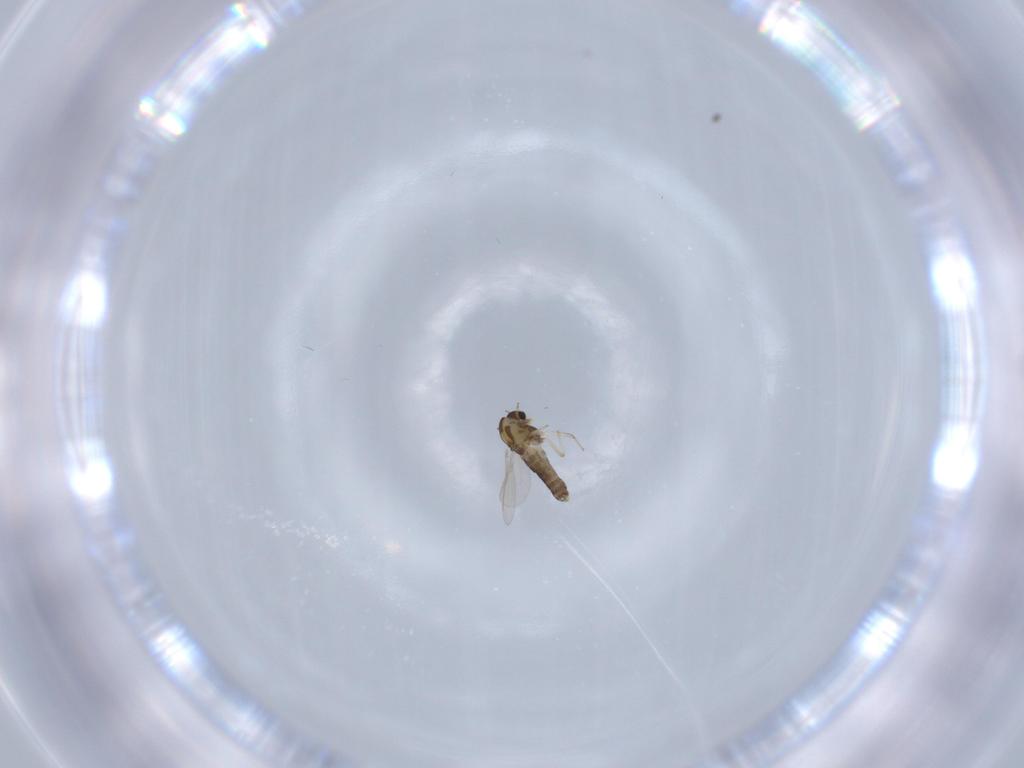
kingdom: Animalia
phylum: Arthropoda
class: Insecta
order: Diptera
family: Chironomidae
